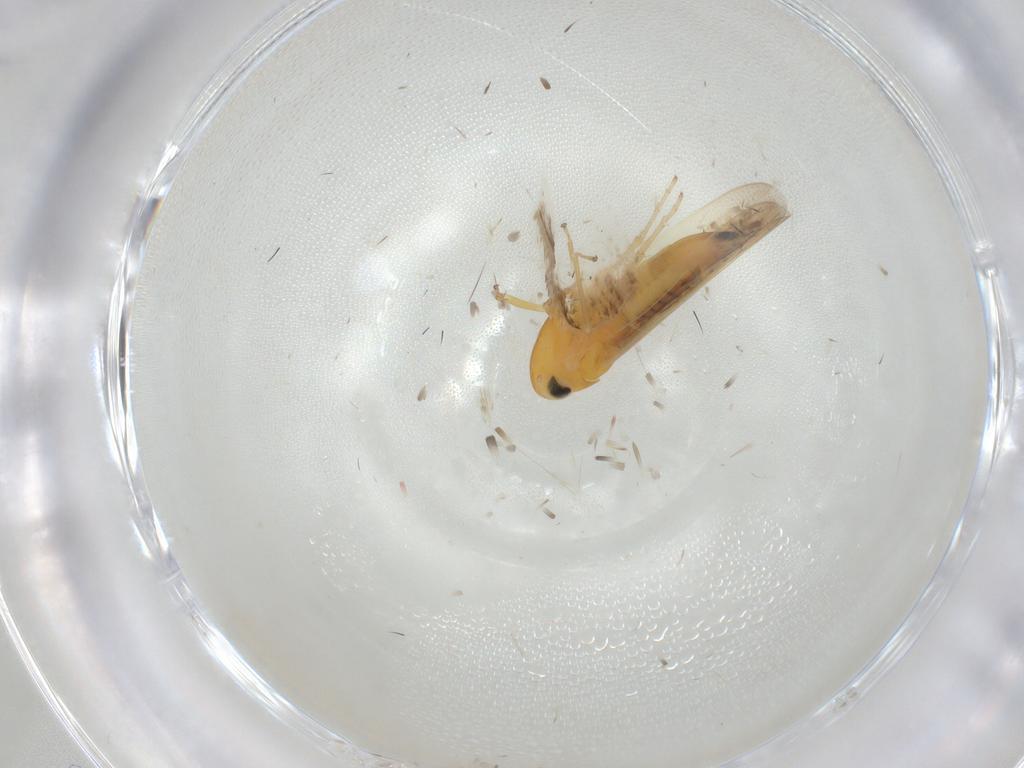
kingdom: Animalia
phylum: Arthropoda
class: Insecta
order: Hemiptera
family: Cicadellidae
